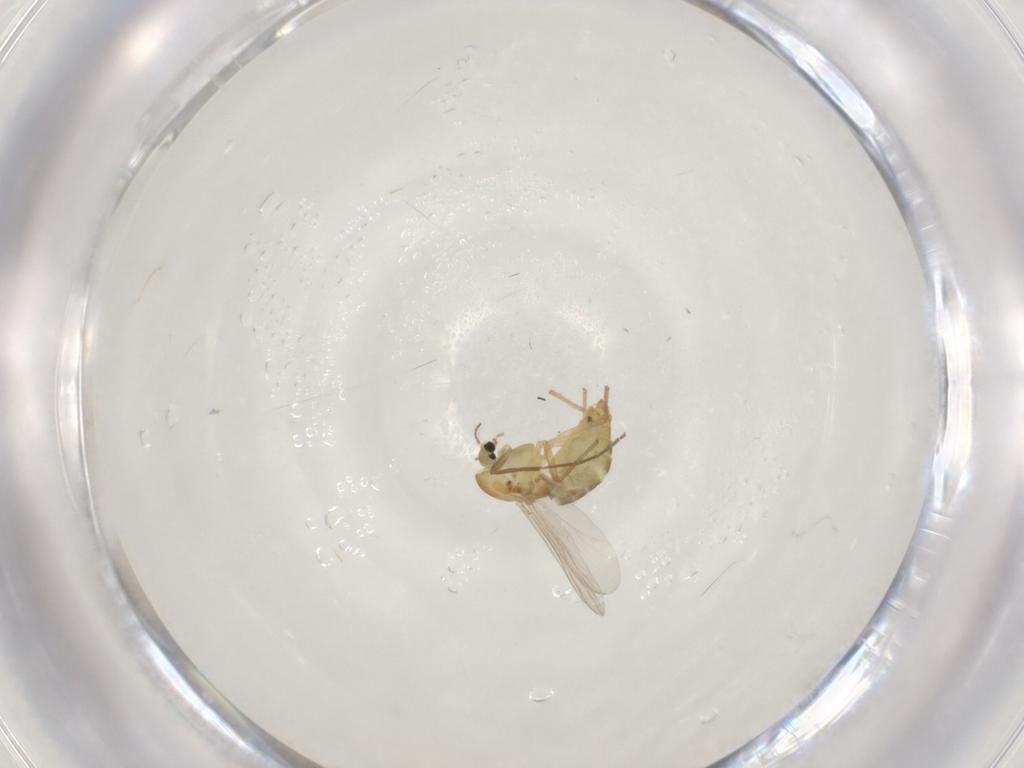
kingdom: Animalia
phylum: Arthropoda
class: Insecta
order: Diptera
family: Chironomidae
